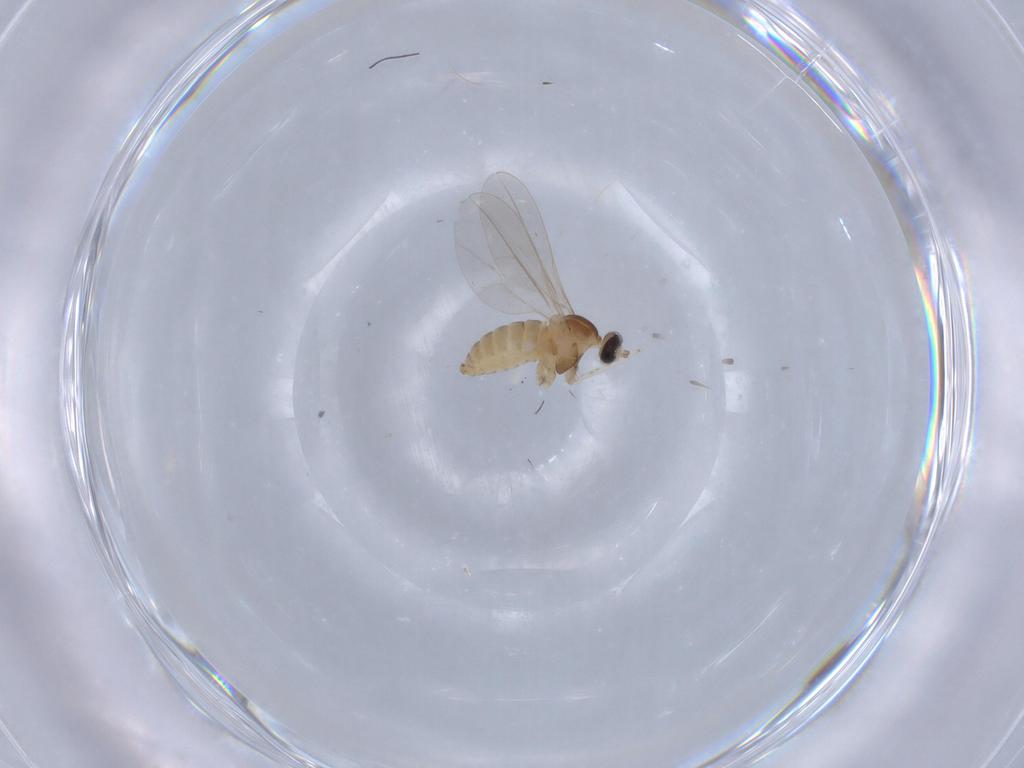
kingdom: Animalia
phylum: Arthropoda
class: Insecta
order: Diptera
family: Cecidomyiidae
